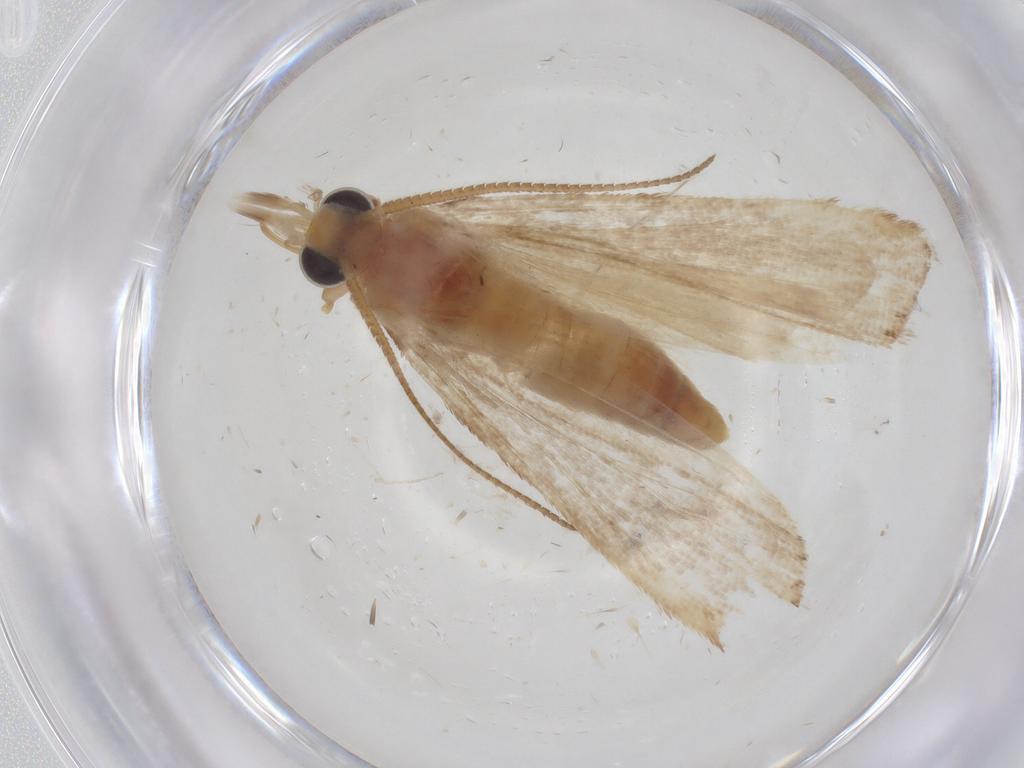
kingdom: Animalia
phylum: Arthropoda
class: Insecta
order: Lepidoptera
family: Pyralidae
